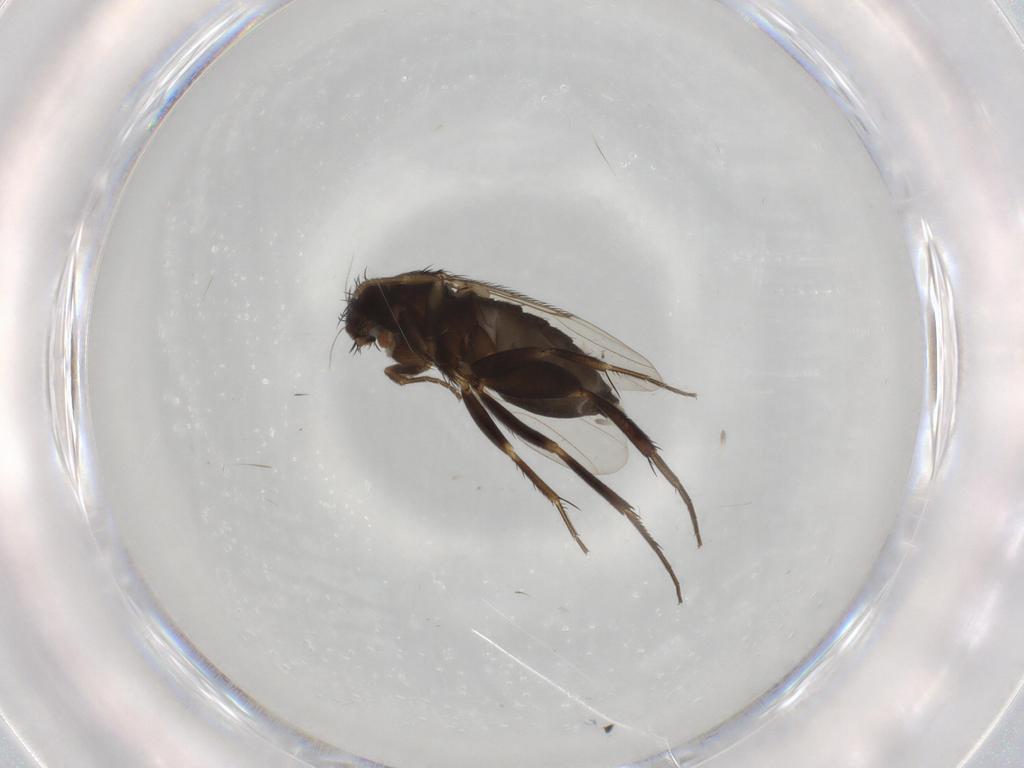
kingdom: Animalia
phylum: Arthropoda
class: Insecta
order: Diptera
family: Phoridae
